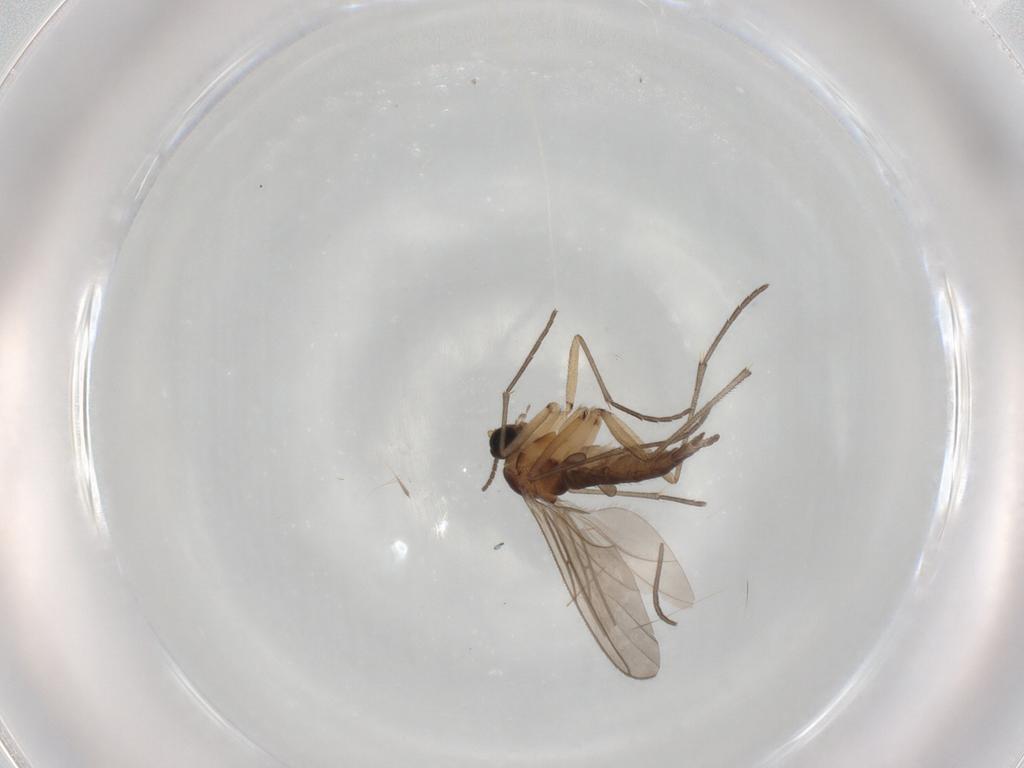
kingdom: Animalia
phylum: Arthropoda
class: Insecta
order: Diptera
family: Sciaridae
